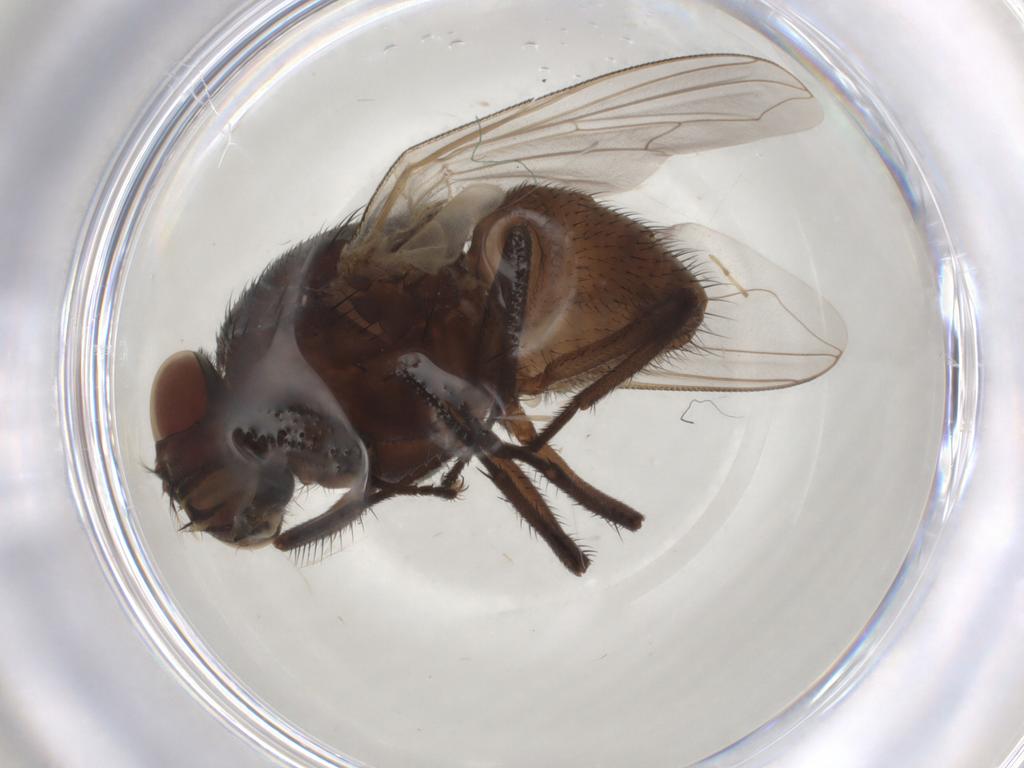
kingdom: Animalia
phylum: Arthropoda
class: Insecta
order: Diptera
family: Muscidae
